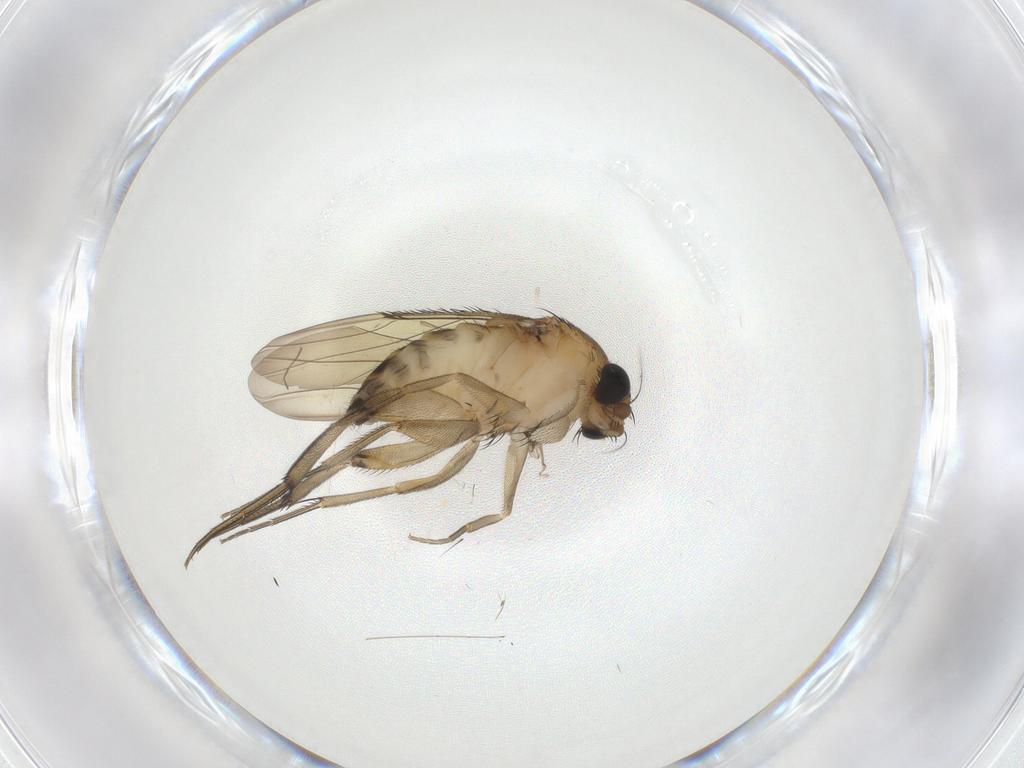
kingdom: Animalia
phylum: Arthropoda
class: Insecta
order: Diptera
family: Phoridae
